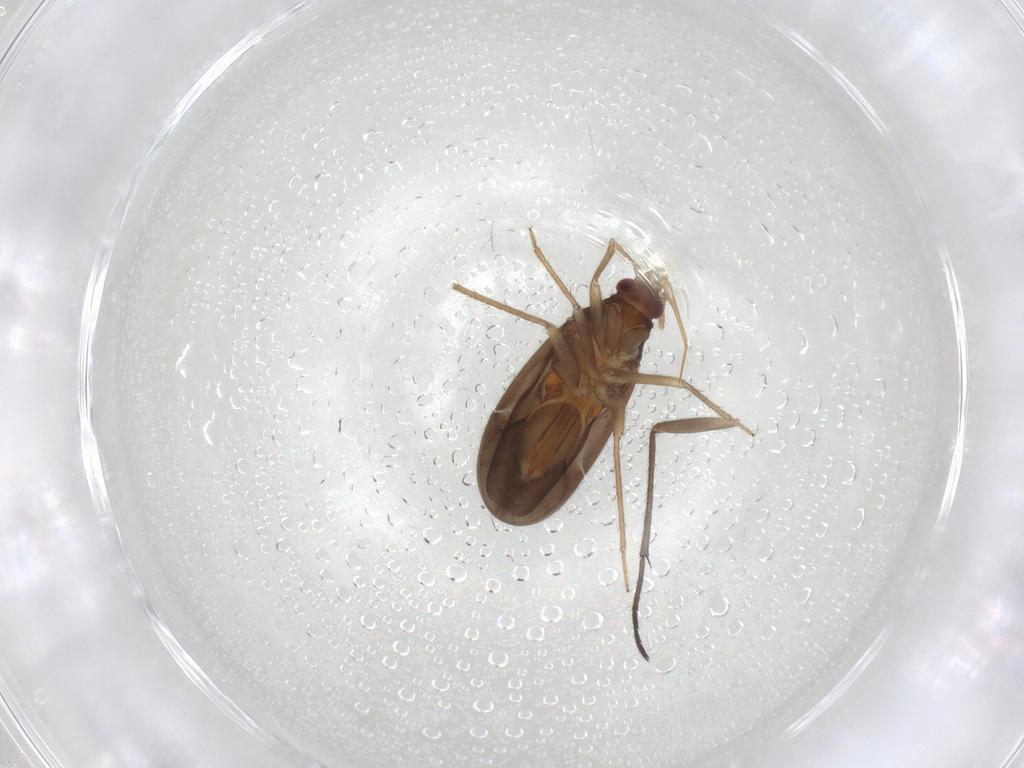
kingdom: Animalia
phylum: Arthropoda
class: Insecta
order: Hemiptera
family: Ceratocombidae
